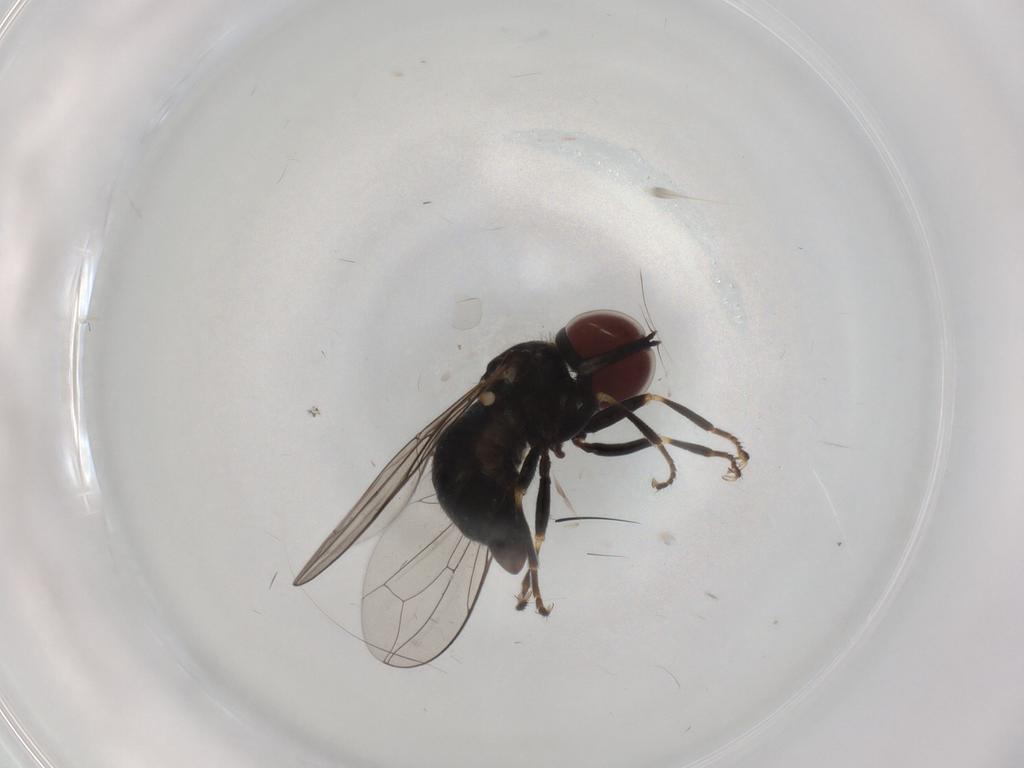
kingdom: Animalia
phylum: Arthropoda
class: Insecta
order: Diptera
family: Pipunculidae
